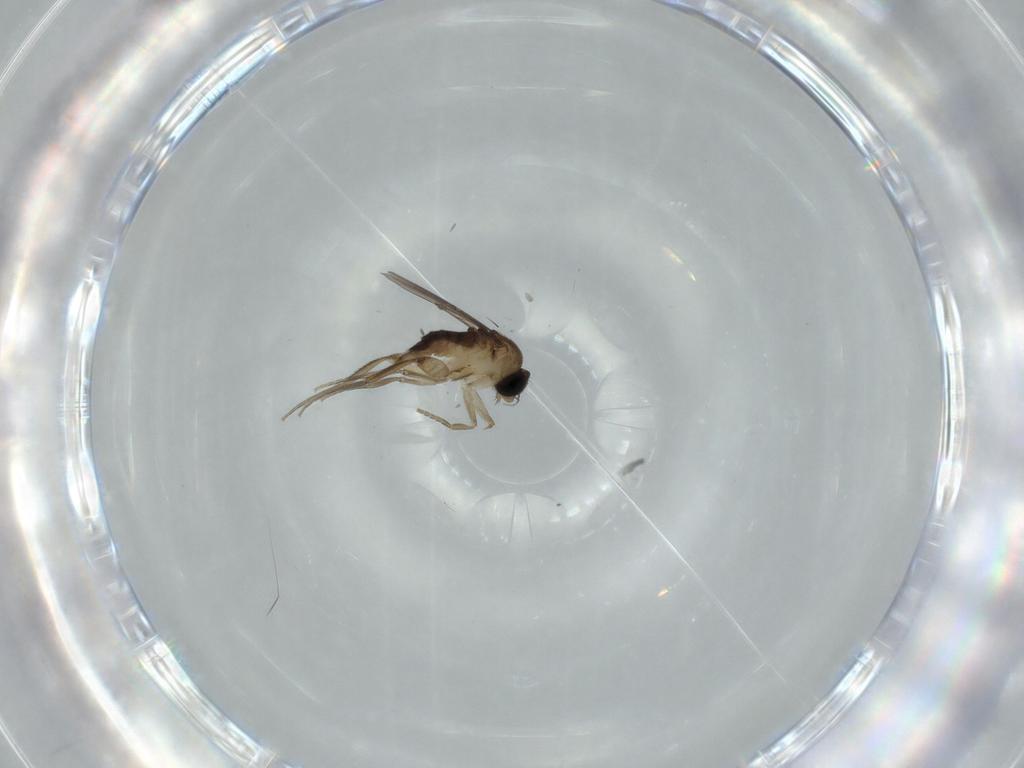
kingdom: Animalia
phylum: Arthropoda
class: Insecta
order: Diptera
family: Phoridae
